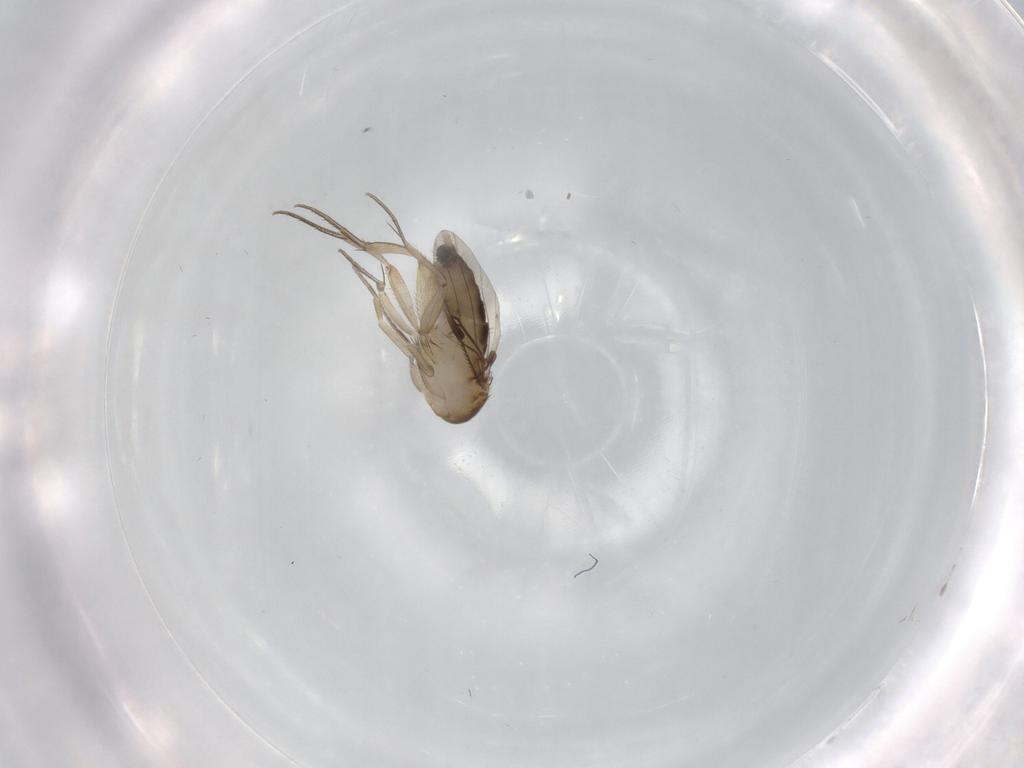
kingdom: Animalia
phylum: Arthropoda
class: Insecta
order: Diptera
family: Phoridae
